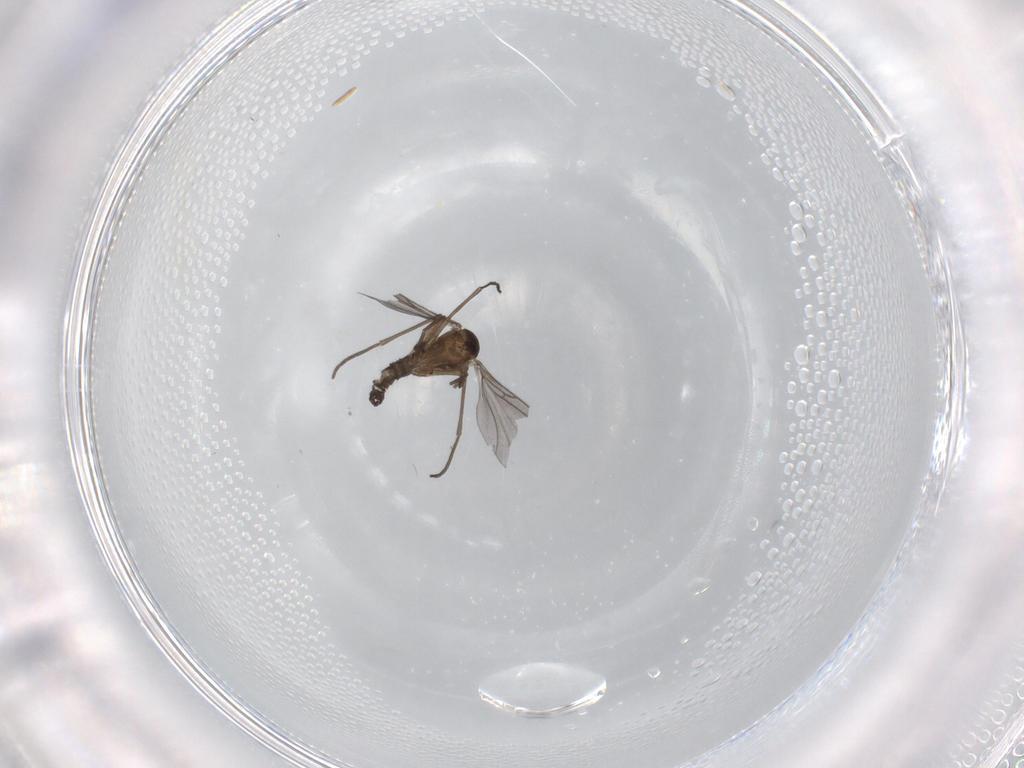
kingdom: Animalia
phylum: Arthropoda
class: Insecta
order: Diptera
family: Sciaridae
